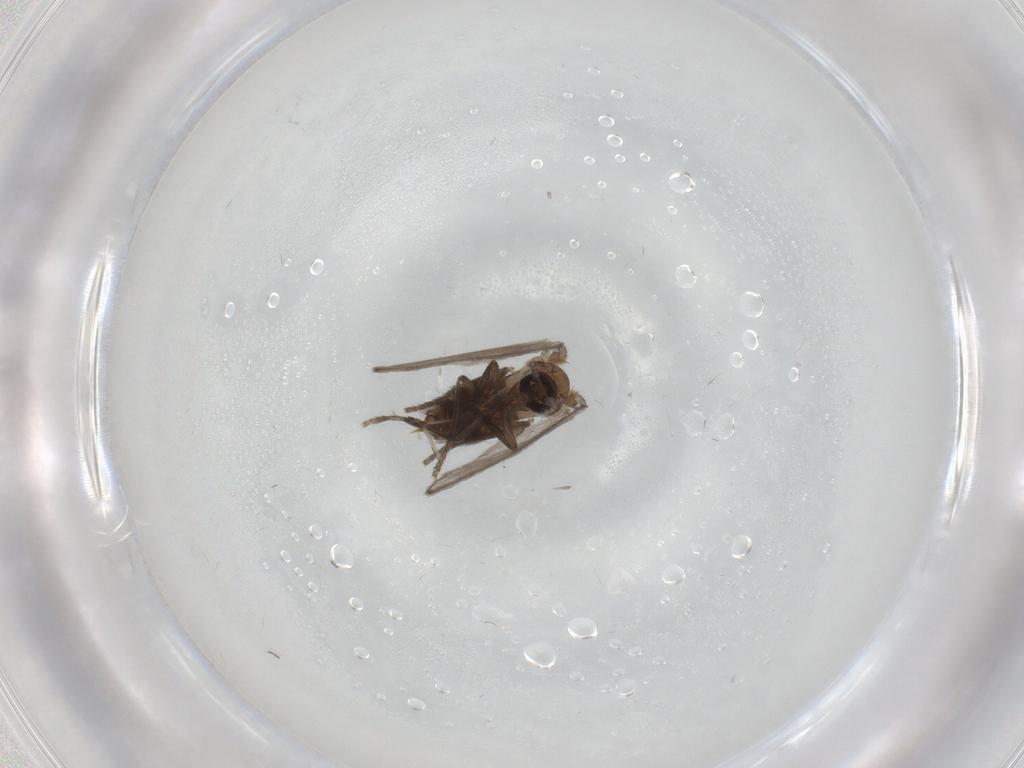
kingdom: Animalia
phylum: Arthropoda
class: Insecta
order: Diptera
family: Cecidomyiidae
